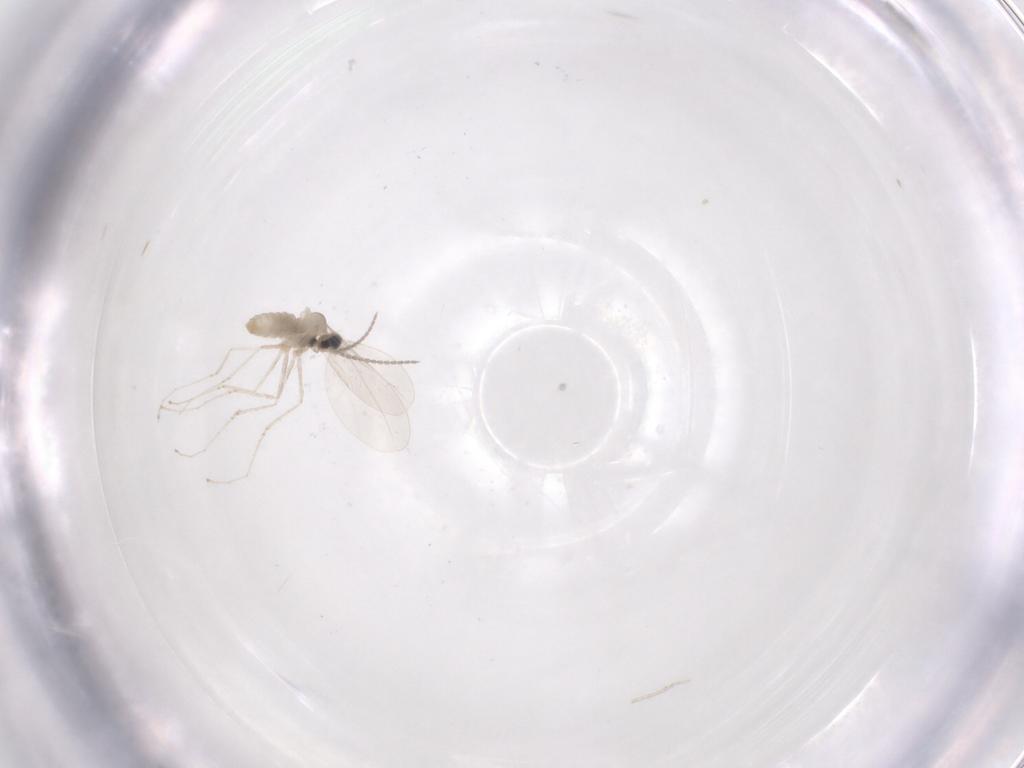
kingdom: Animalia
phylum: Arthropoda
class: Insecta
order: Diptera
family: Cecidomyiidae
